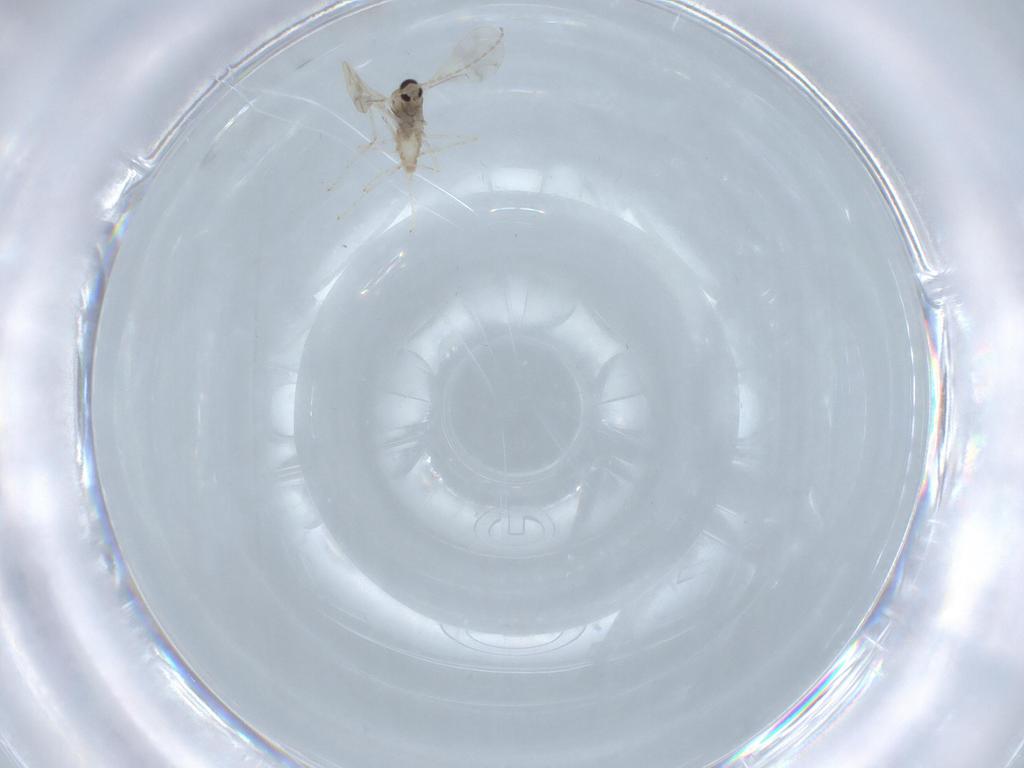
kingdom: Animalia
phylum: Arthropoda
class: Insecta
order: Diptera
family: Cecidomyiidae
